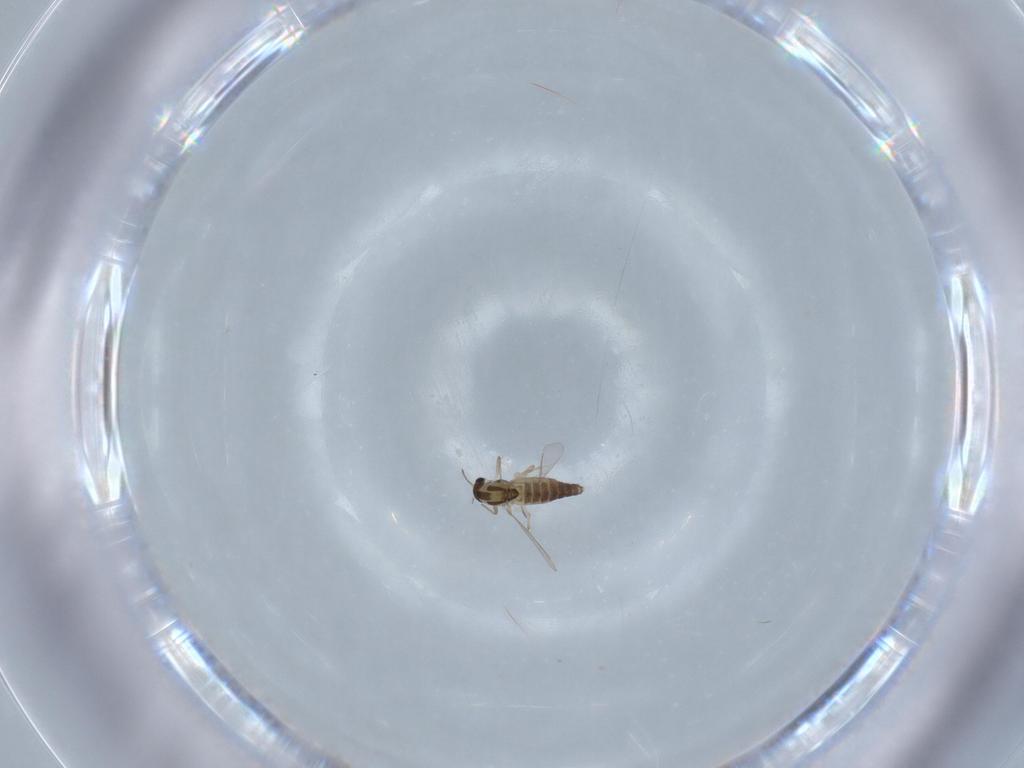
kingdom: Animalia
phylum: Arthropoda
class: Insecta
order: Diptera
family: Chironomidae
